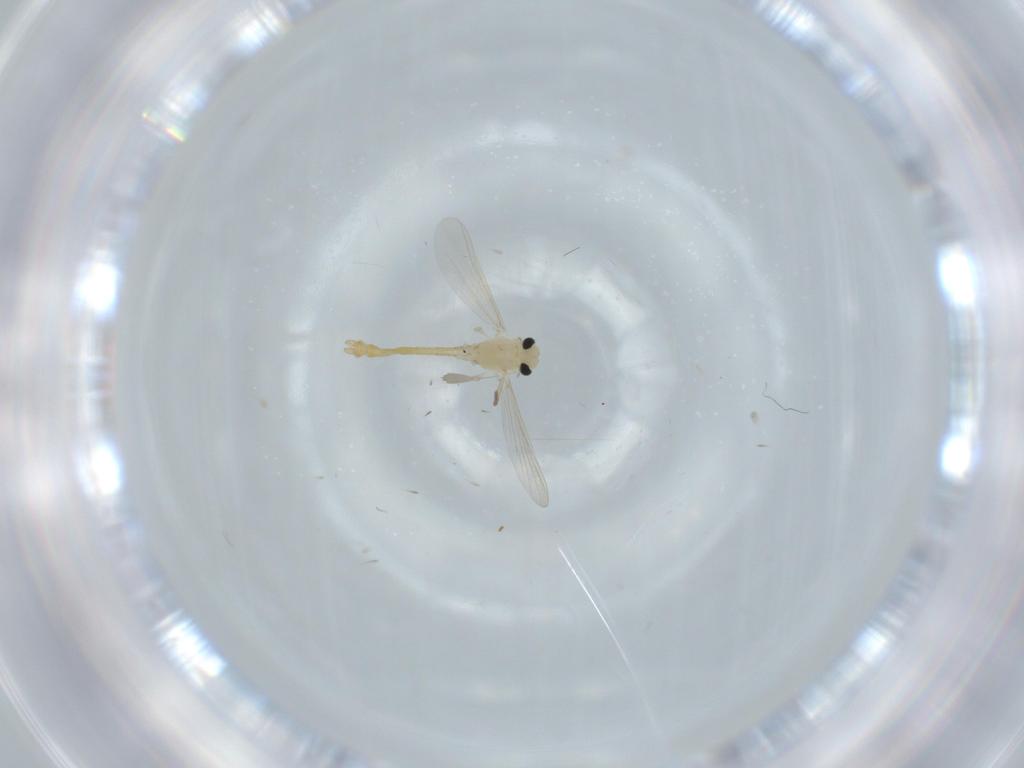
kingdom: Animalia
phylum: Arthropoda
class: Insecta
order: Diptera
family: Chironomidae
